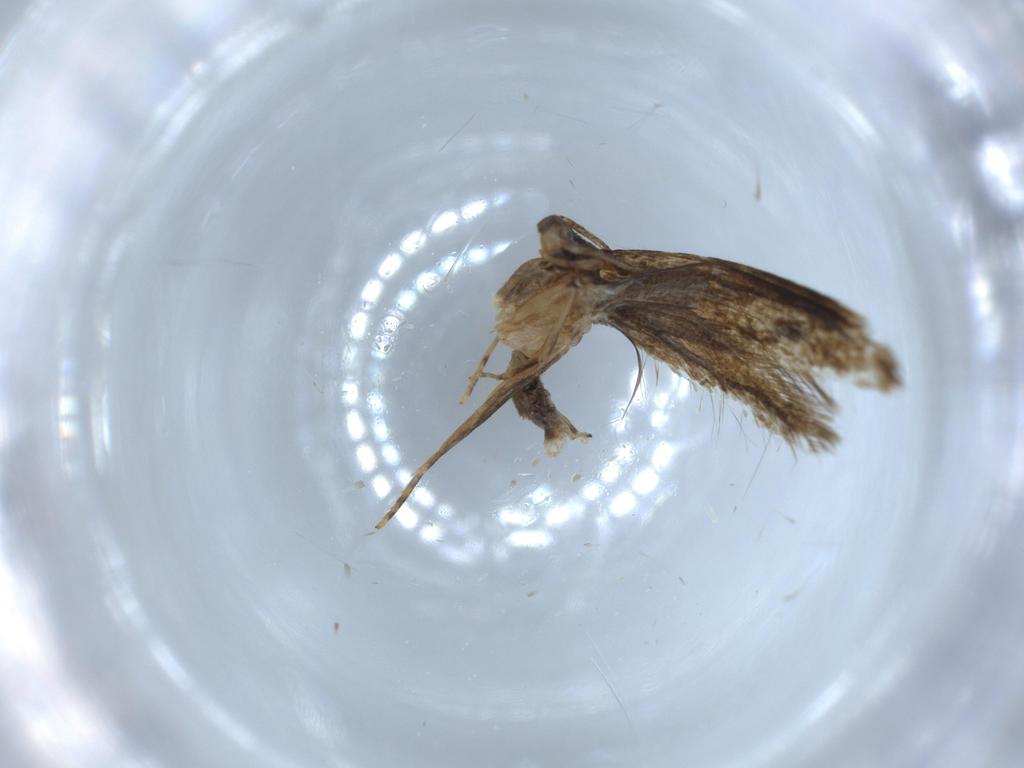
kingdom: Animalia
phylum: Arthropoda
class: Insecta
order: Lepidoptera
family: Tineidae
